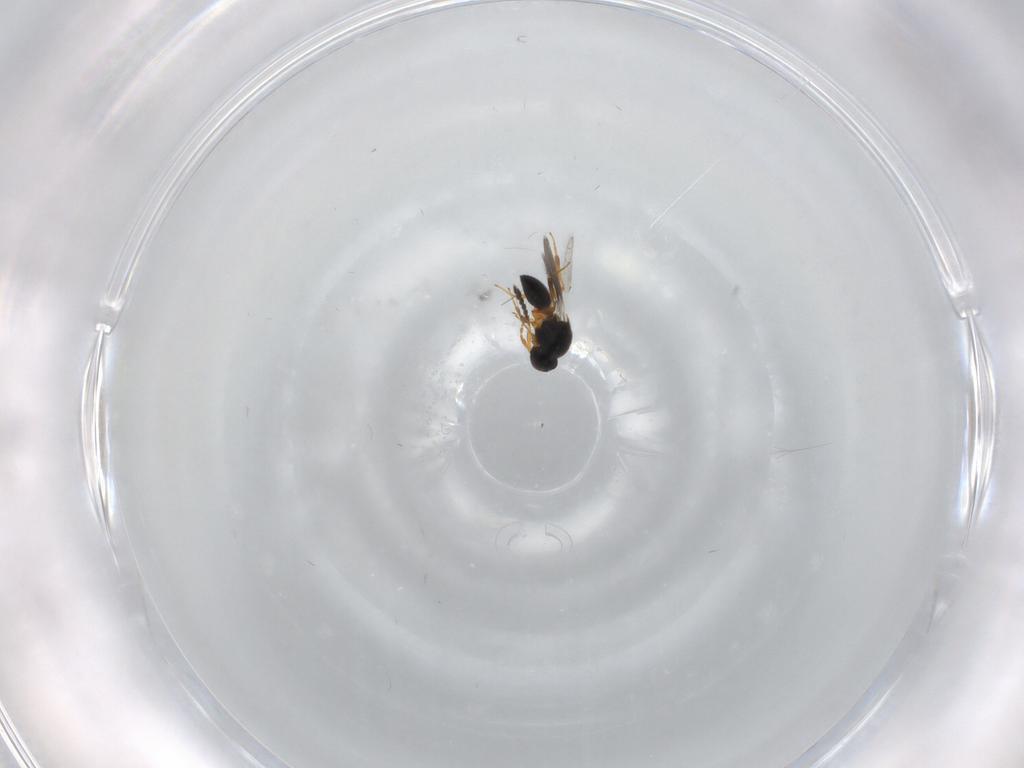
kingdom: Animalia
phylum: Arthropoda
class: Insecta
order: Hymenoptera
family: Platygastridae
